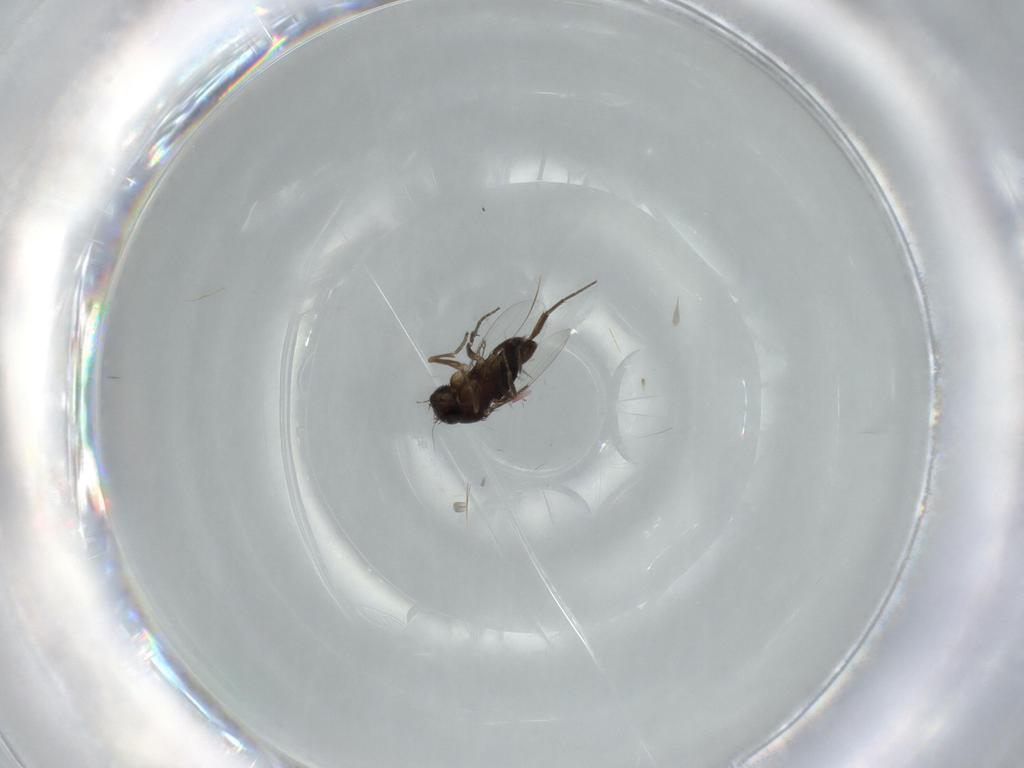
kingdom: Animalia
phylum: Arthropoda
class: Insecta
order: Diptera
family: Phoridae
